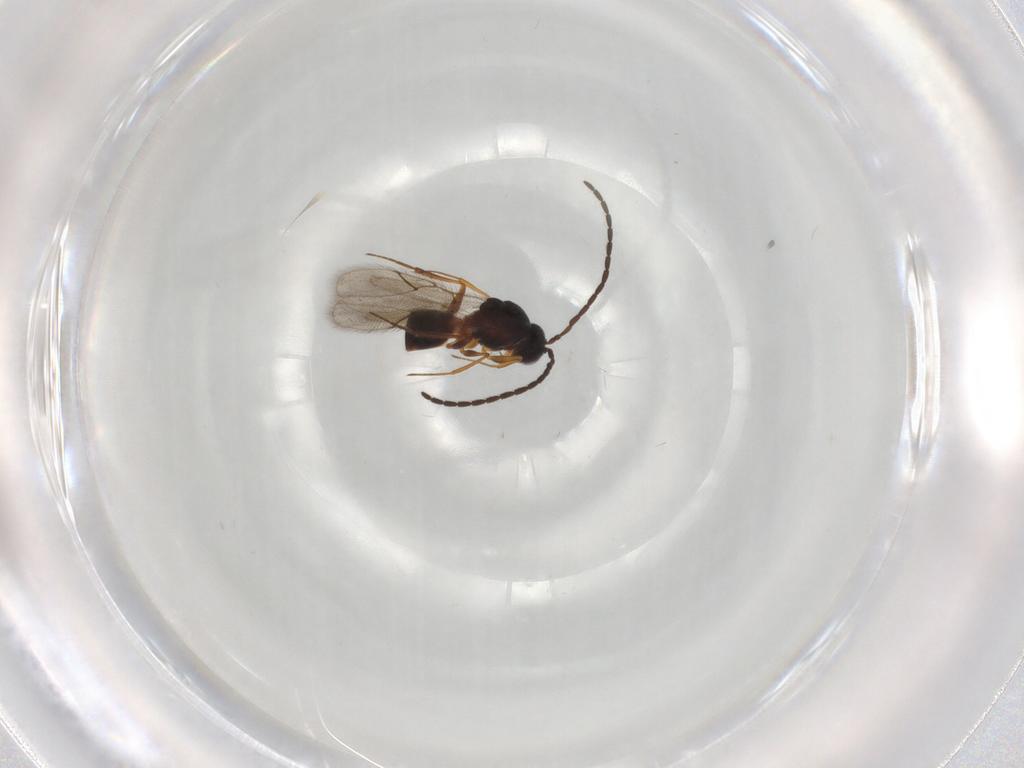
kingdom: Animalia
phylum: Arthropoda
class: Insecta
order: Hymenoptera
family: Figitidae
